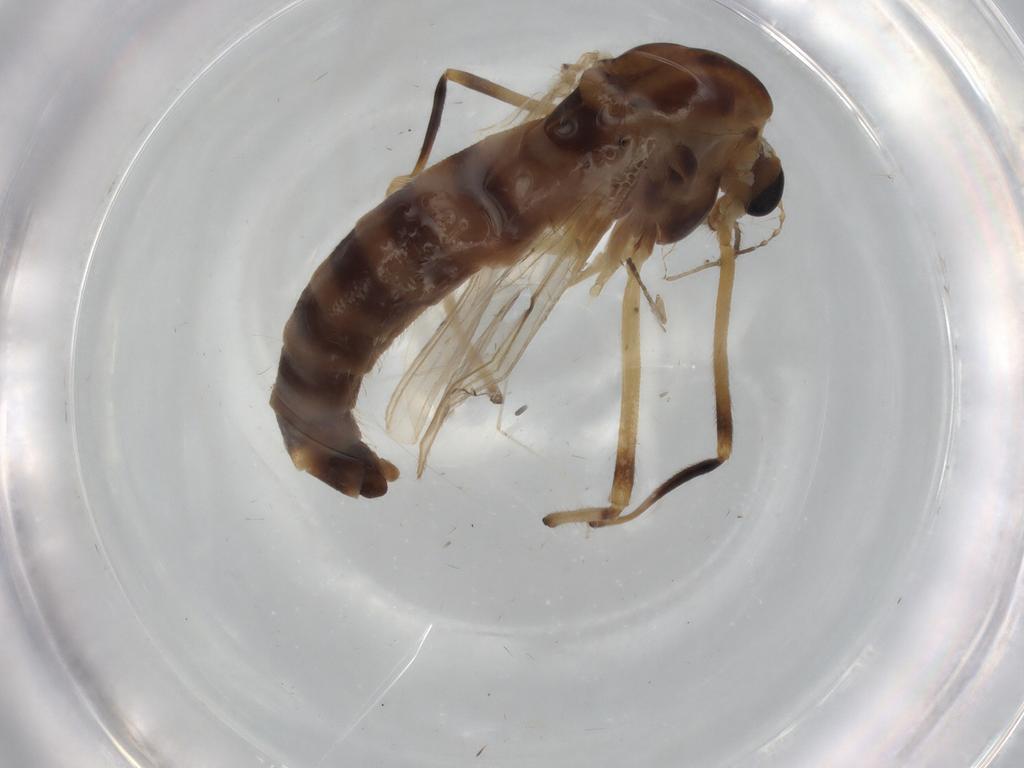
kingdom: Animalia
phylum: Arthropoda
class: Insecta
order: Diptera
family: Chironomidae
